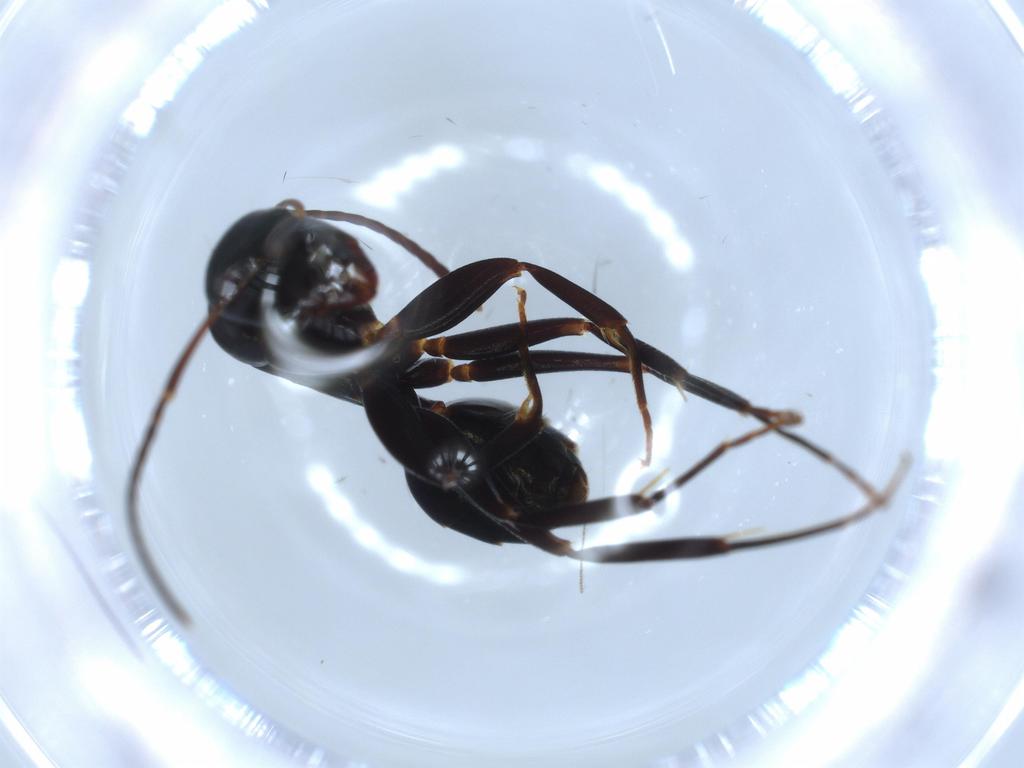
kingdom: Animalia
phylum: Arthropoda
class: Insecta
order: Hymenoptera
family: Formicidae
